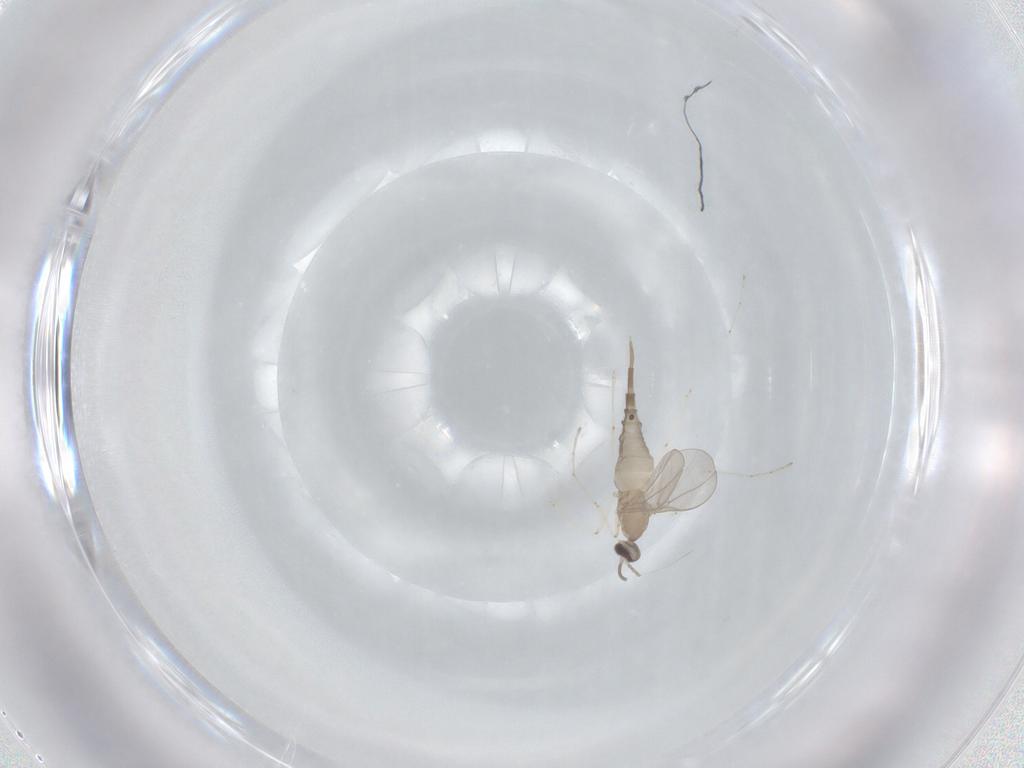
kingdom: Animalia
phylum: Arthropoda
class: Insecta
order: Diptera
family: Cecidomyiidae
